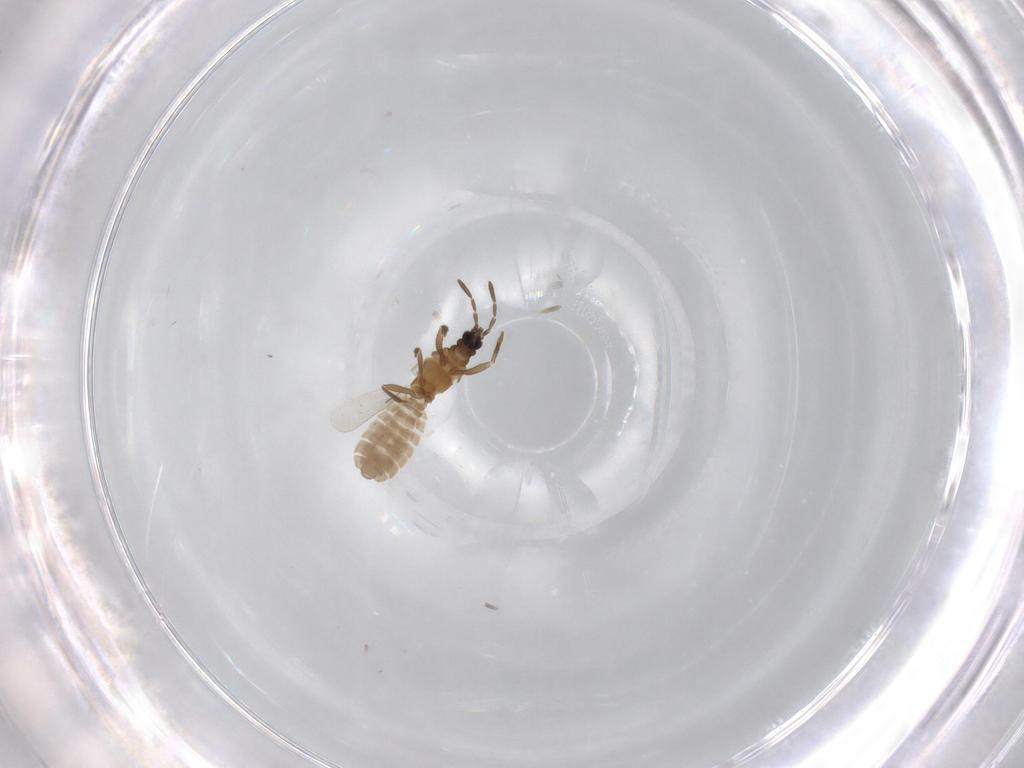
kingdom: Animalia
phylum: Arthropoda
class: Insecta
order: Hemiptera
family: Enicocephalidae
